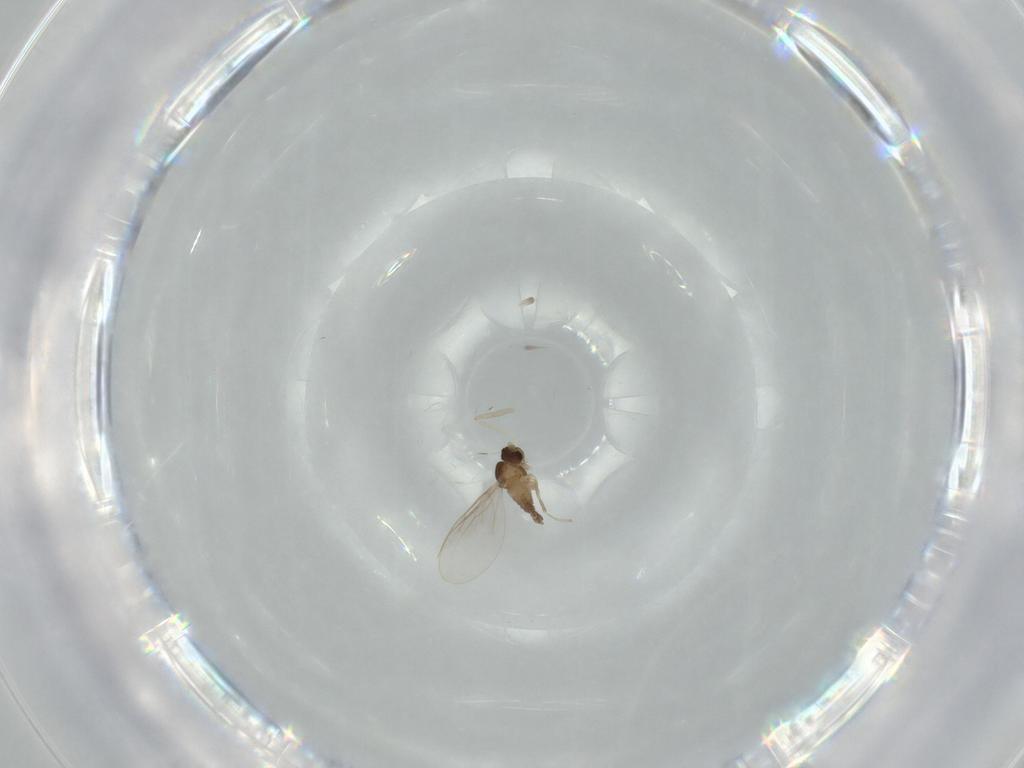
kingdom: Animalia
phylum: Arthropoda
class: Insecta
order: Diptera
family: Cecidomyiidae
